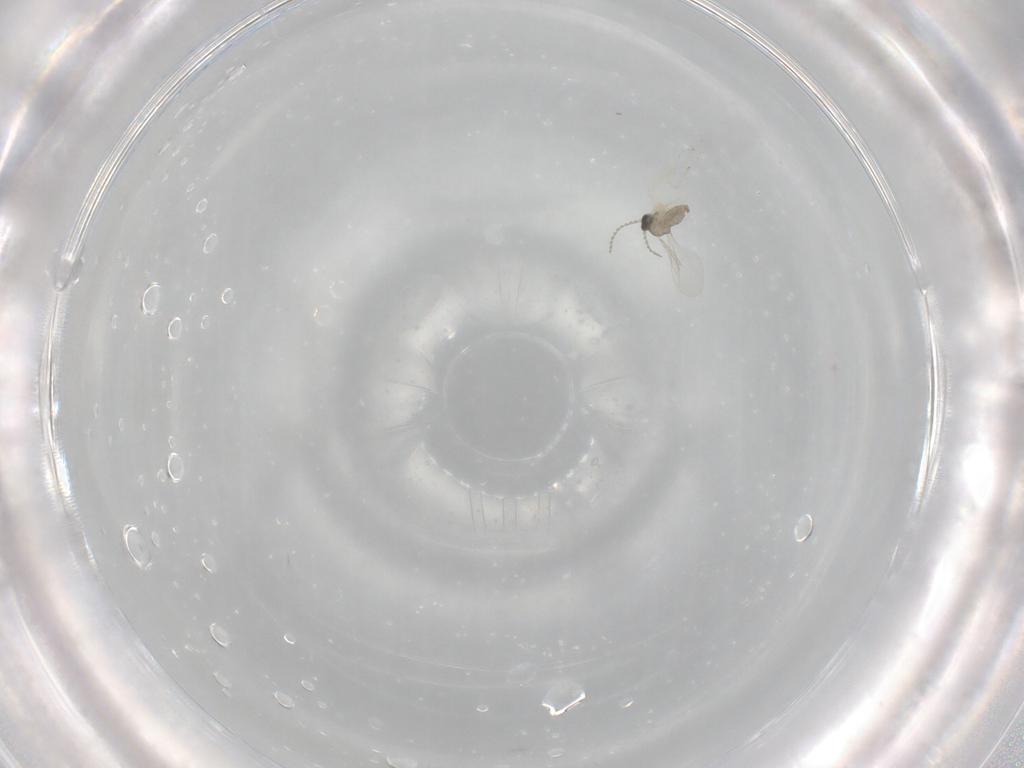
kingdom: Animalia
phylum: Arthropoda
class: Insecta
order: Diptera
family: Cecidomyiidae
